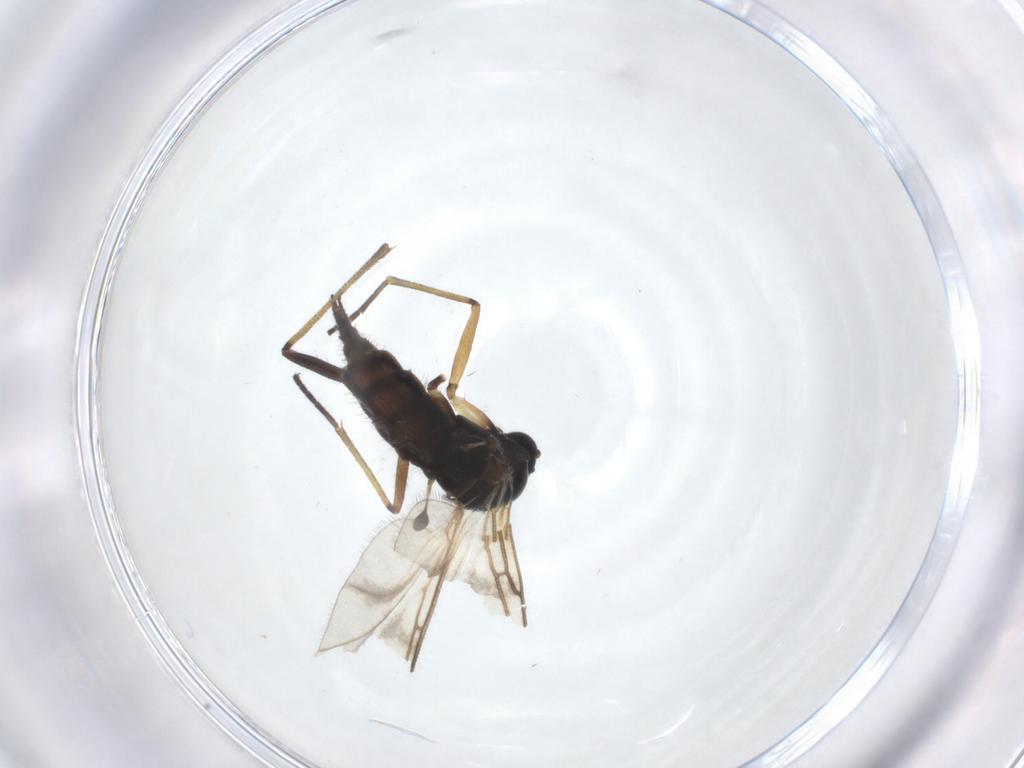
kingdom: Animalia
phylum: Arthropoda
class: Insecta
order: Diptera
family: Sciaridae
